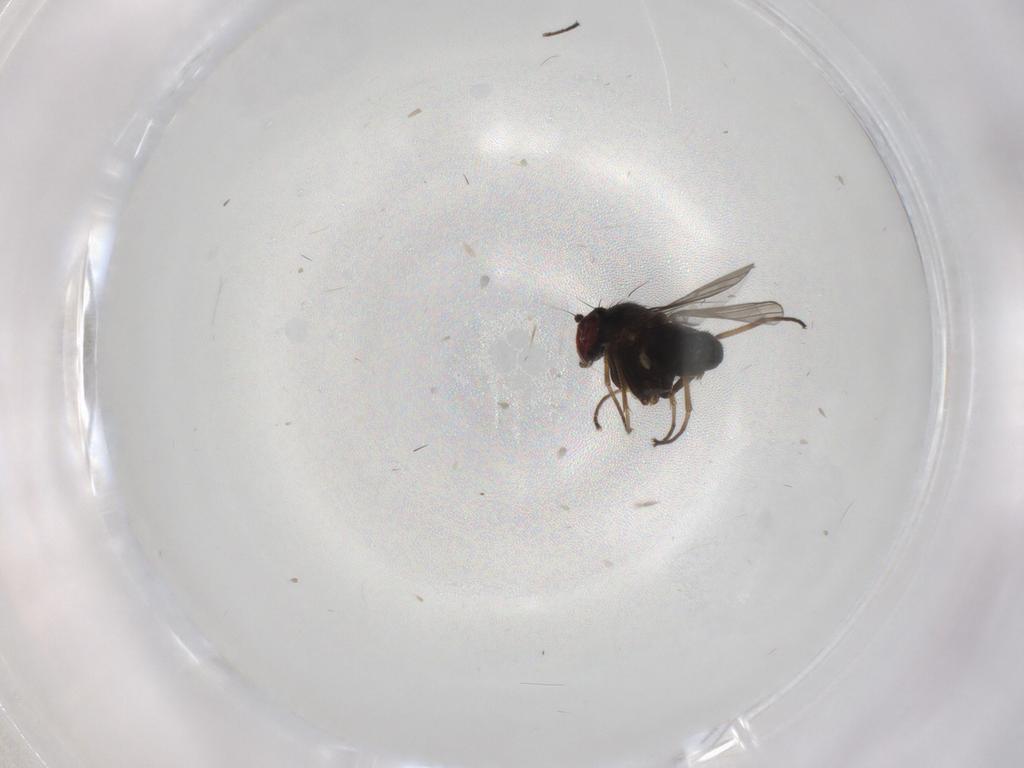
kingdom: Animalia
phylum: Arthropoda
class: Insecta
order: Diptera
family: Dolichopodidae
